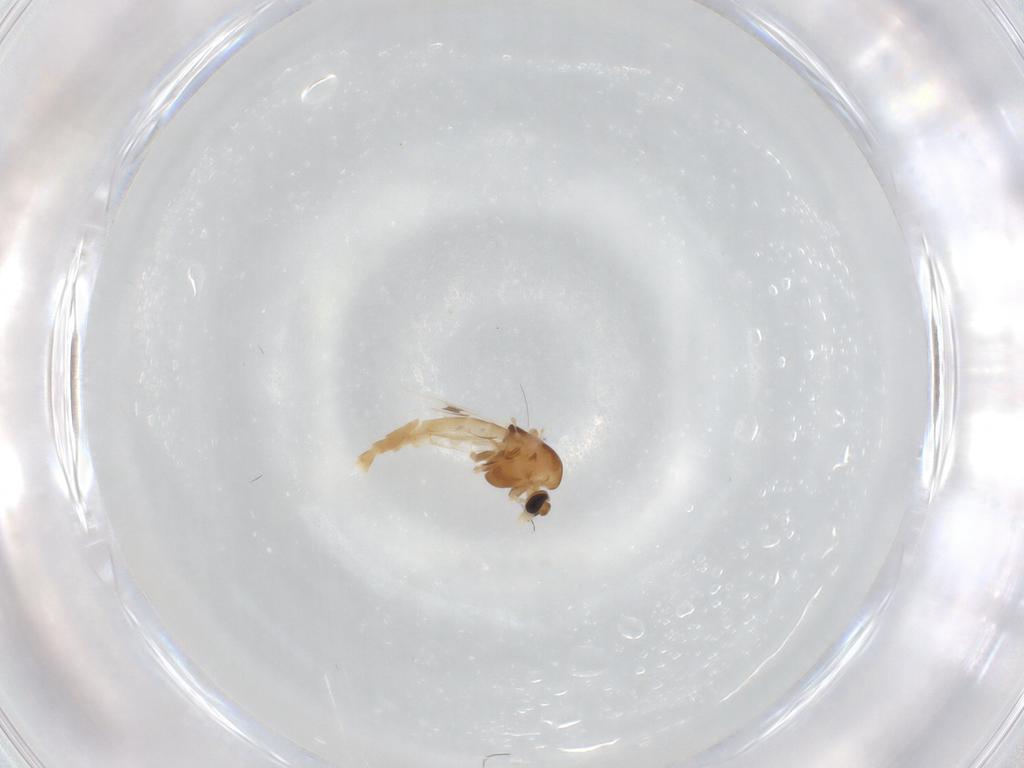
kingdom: Animalia
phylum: Arthropoda
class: Insecta
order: Diptera
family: Chironomidae
